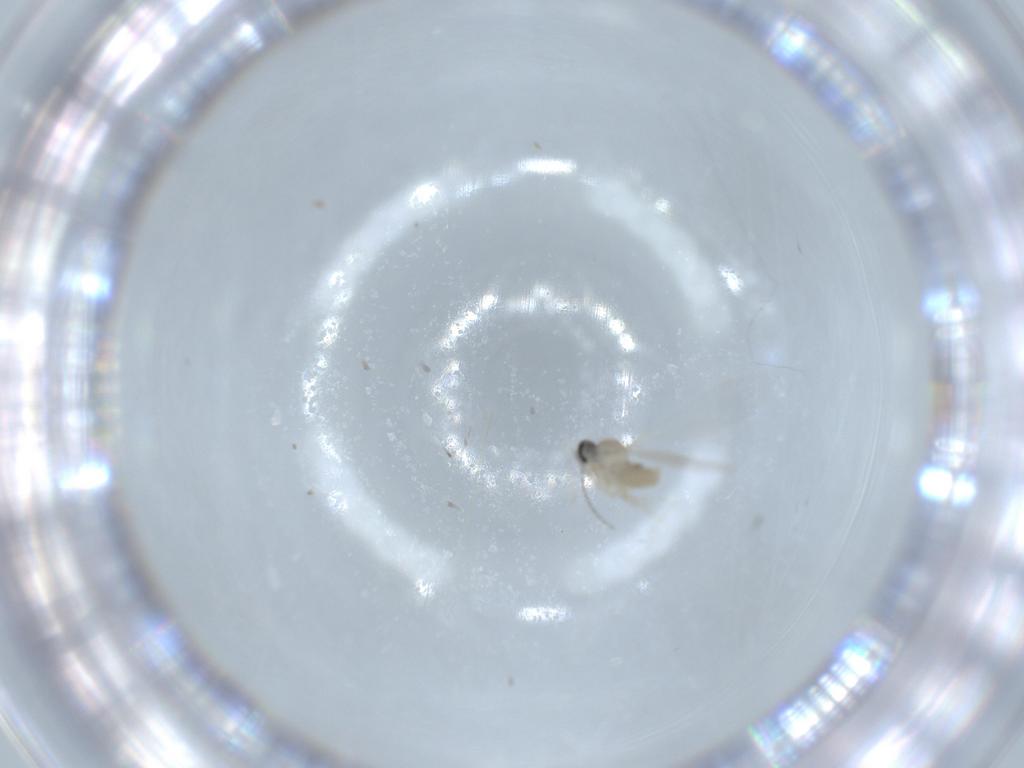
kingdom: Animalia
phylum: Arthropoda
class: Insecta
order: Diptera
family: Cecidomyiidae
